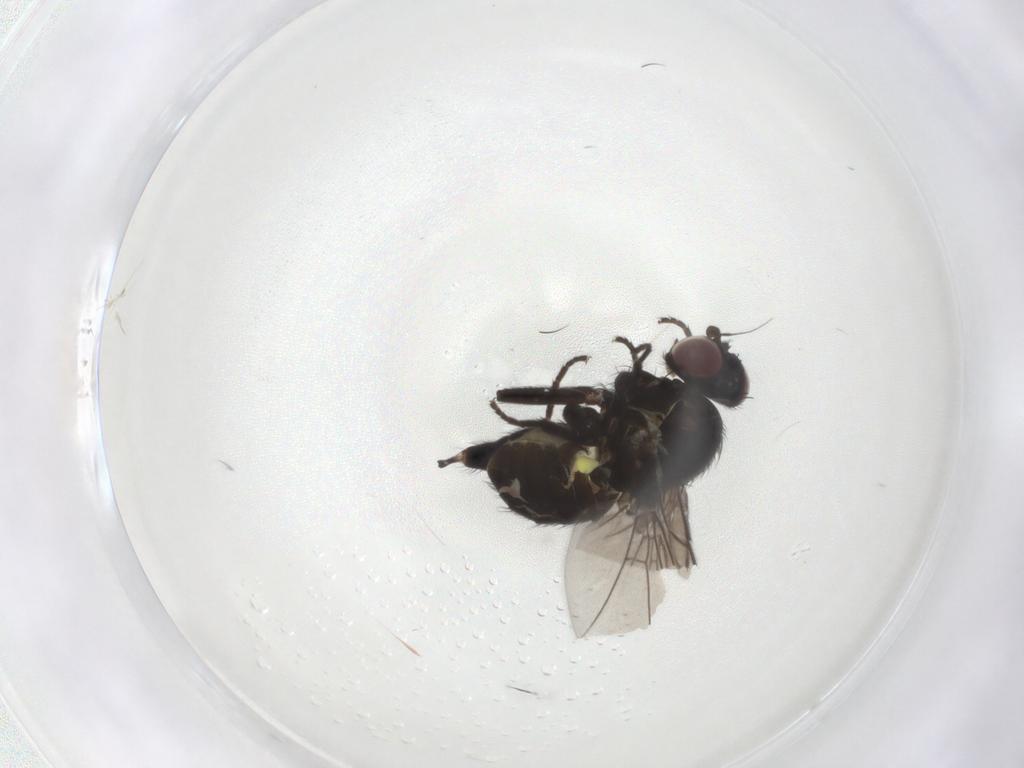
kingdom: Animalia
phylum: Arthropoda
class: Insecta
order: Diptera
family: Agromyzidae
